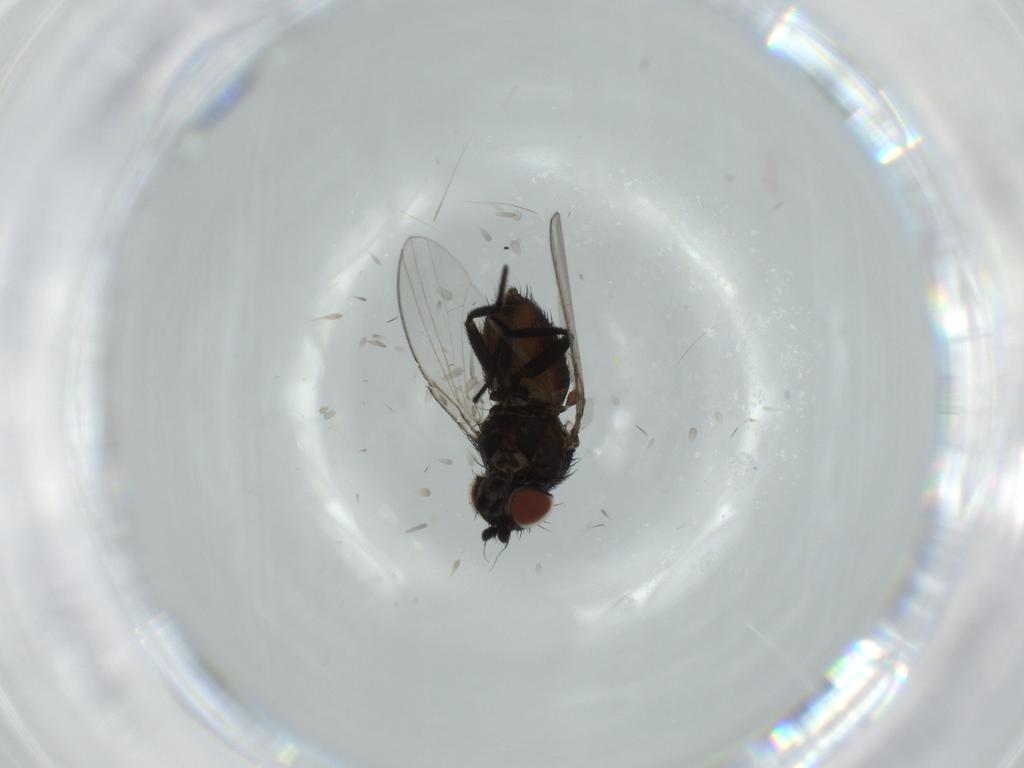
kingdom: Animalia
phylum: Arthropoda
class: Insecta
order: Diptera
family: Milichiidae
